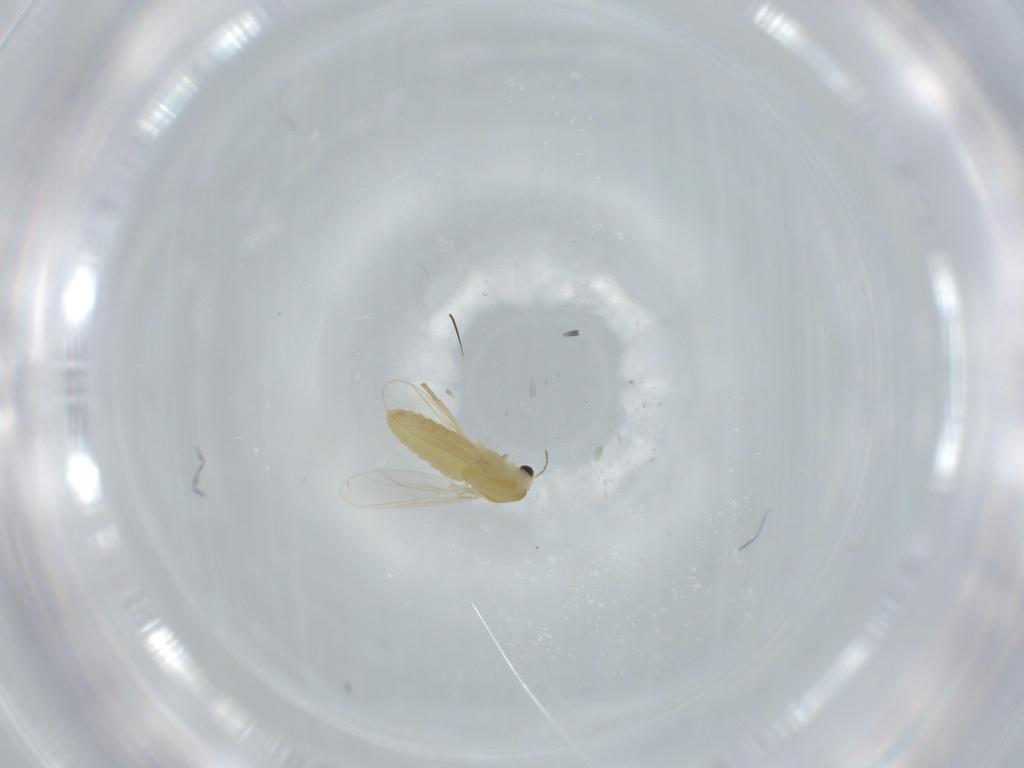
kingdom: Animalia
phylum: Arthropoda
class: Insecta
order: Diptera
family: Chironomidae
